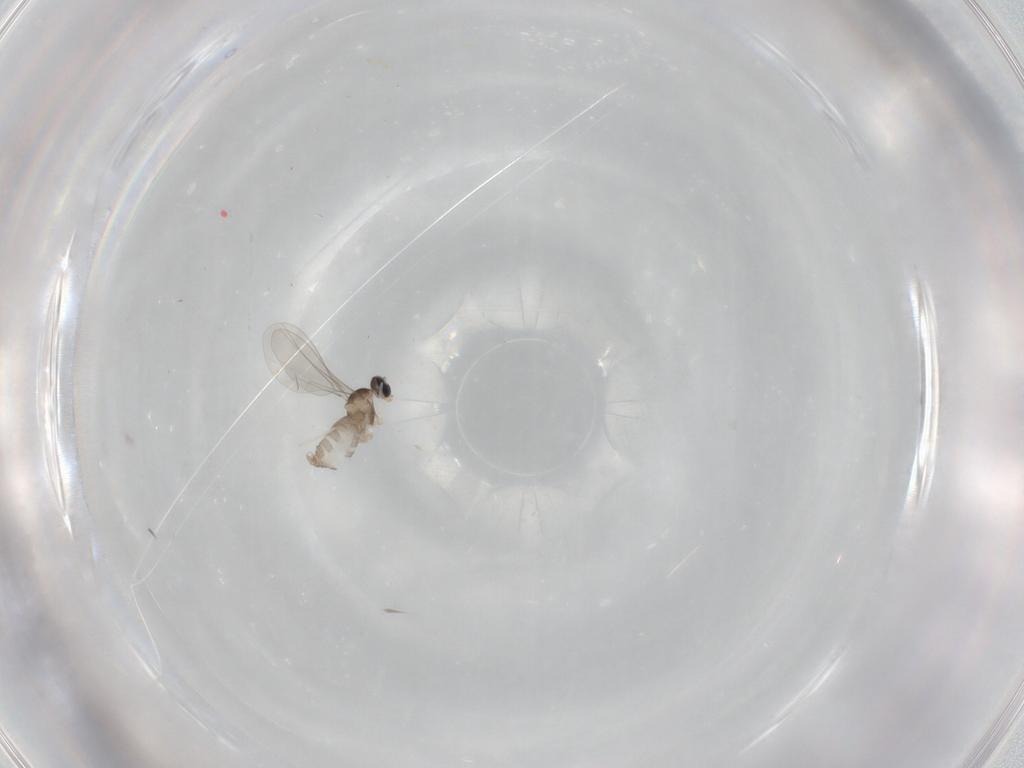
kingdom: Animalia
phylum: Arthropoda
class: Insecta
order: Diptera
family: Cecidomyiidae
